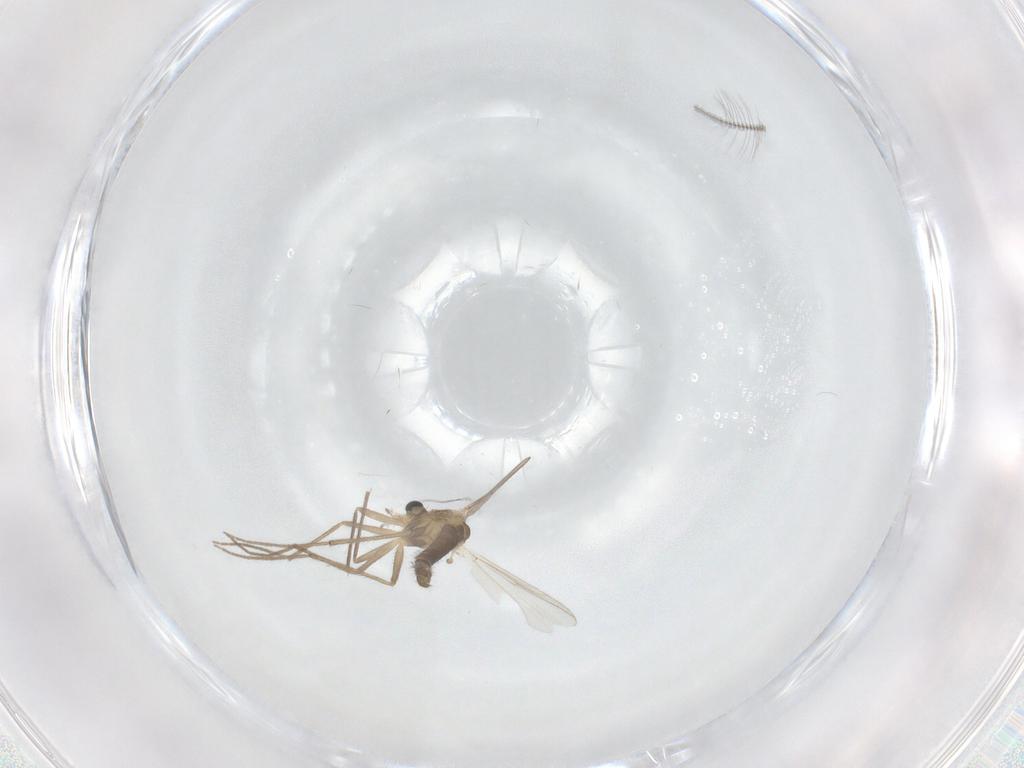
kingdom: Animalia
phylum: Arthropoda
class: Insecta
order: Diptera
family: Chironomidae
